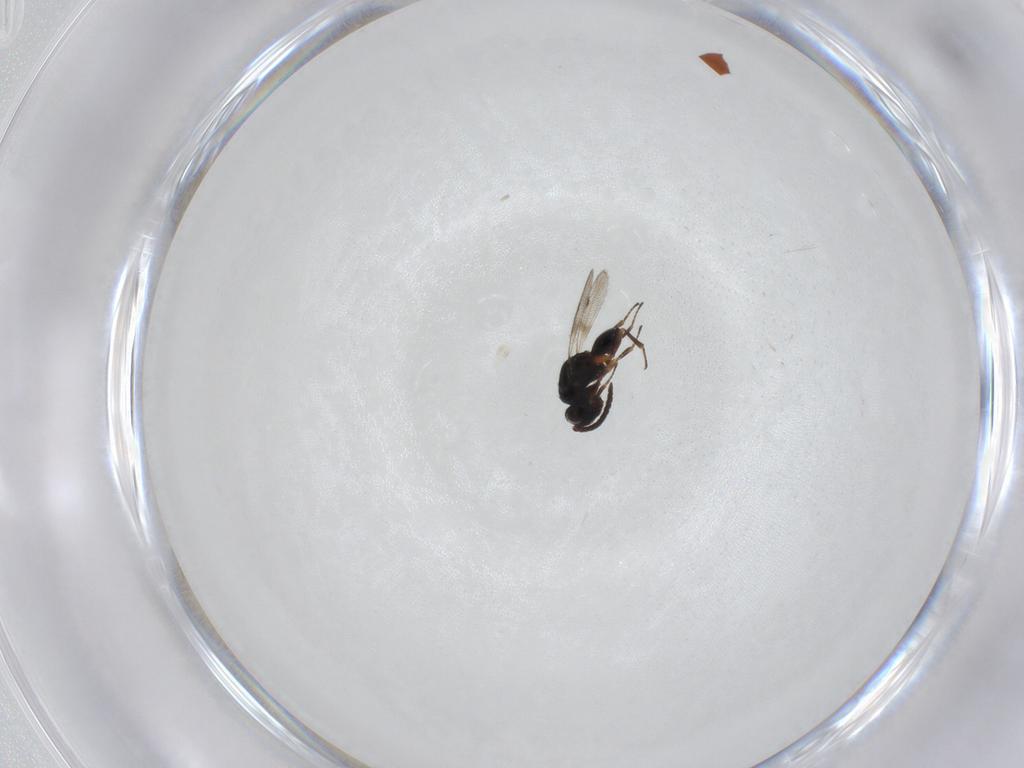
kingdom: Animalia
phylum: Arthropoda
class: Insecta
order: Hymenoptera
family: Diparidae
